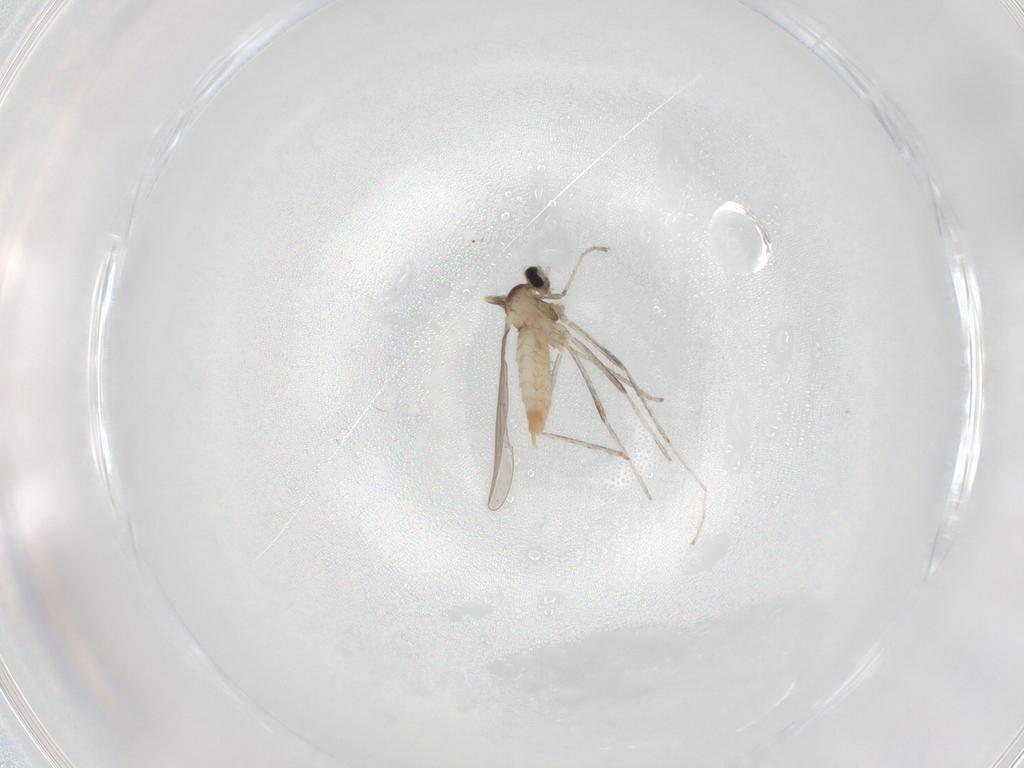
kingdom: Animalia
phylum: Arthropoda
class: Insecta
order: Diptera
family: Cecidomyiidae
